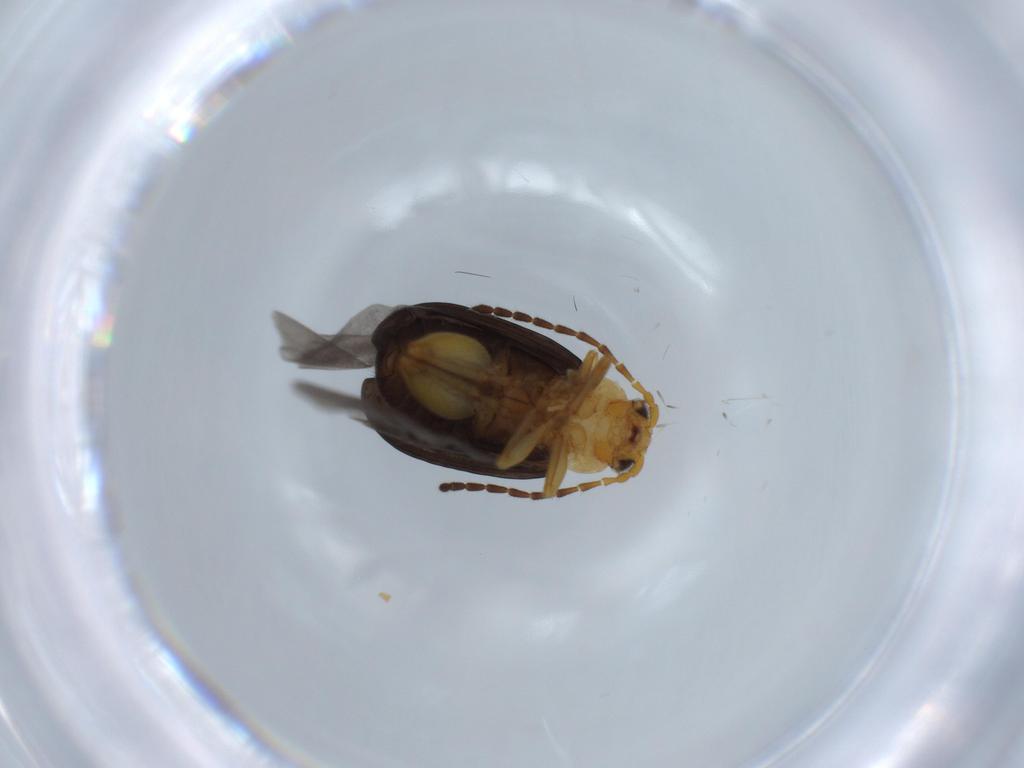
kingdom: Animalia
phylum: Arthropoda
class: Insecta
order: Coleoptera
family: Chrysomelidae
